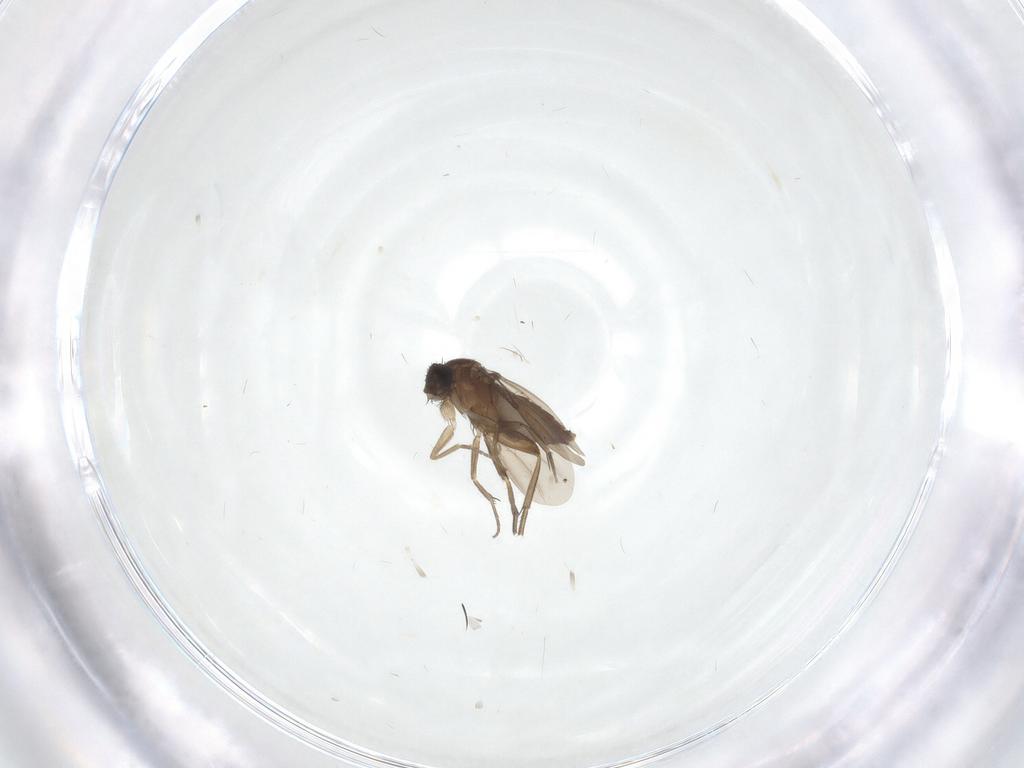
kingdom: Animalia
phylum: Arthropoda
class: Insecta
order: Diptera
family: Phoridae
